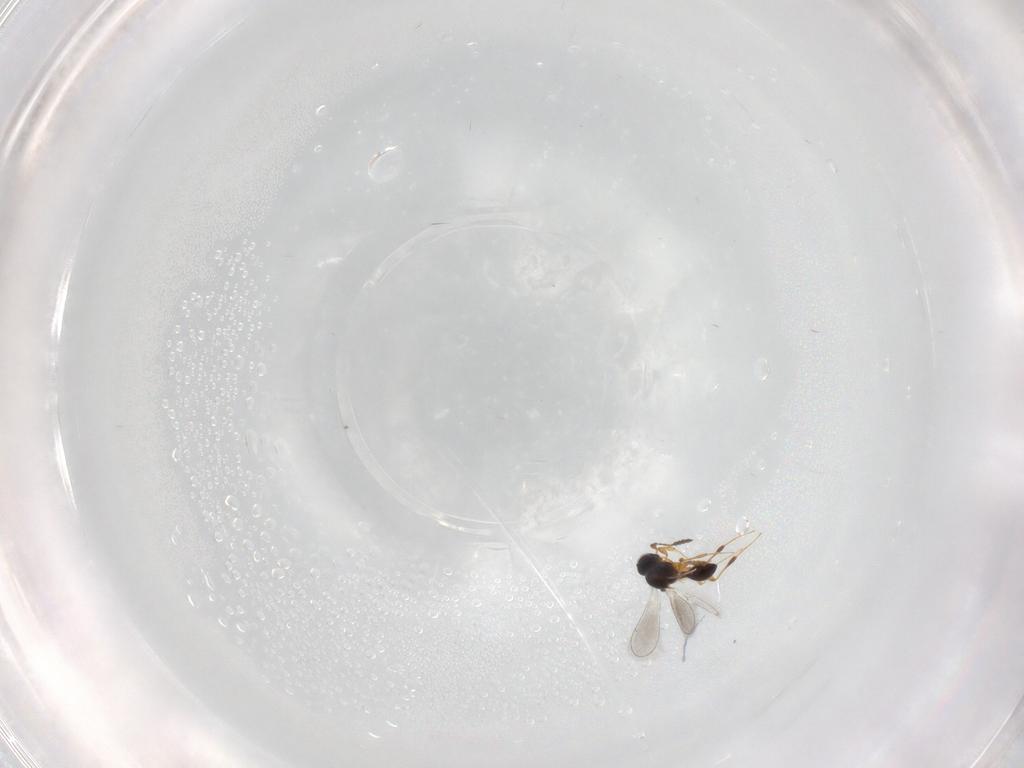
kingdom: Animalia
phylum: Arthropoda
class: Insecta
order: Hymenoptera
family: Platygastridae
